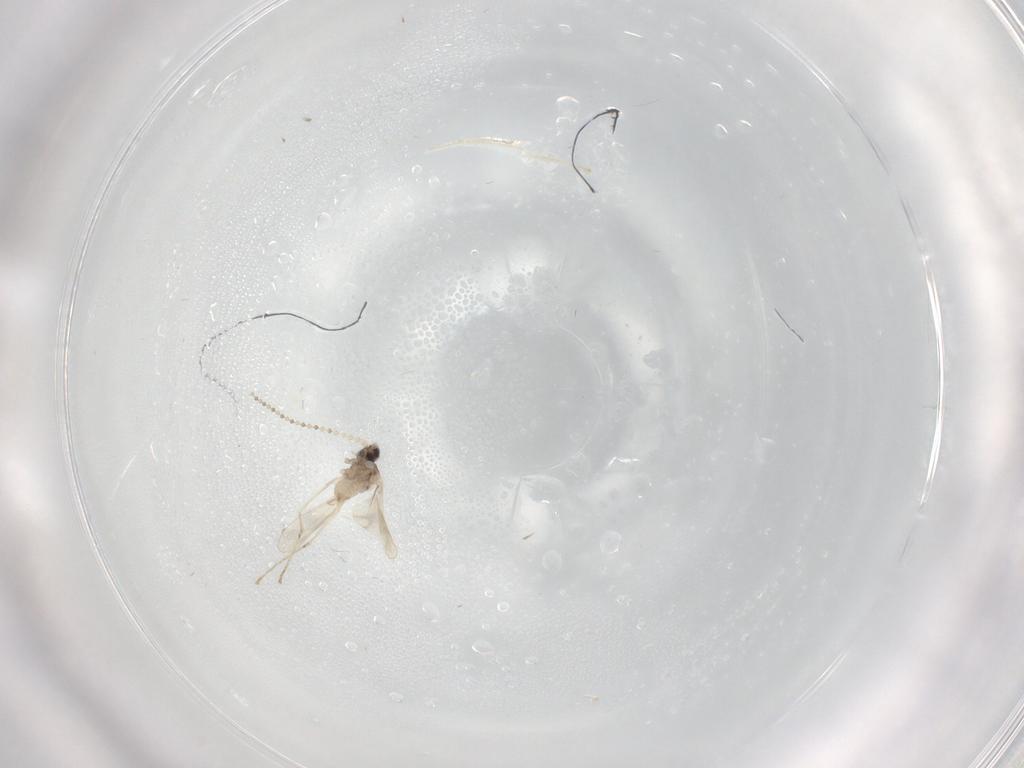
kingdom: Animalia
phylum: Arthropoda
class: Insecta
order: Diptera
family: Cecidomyiidae
